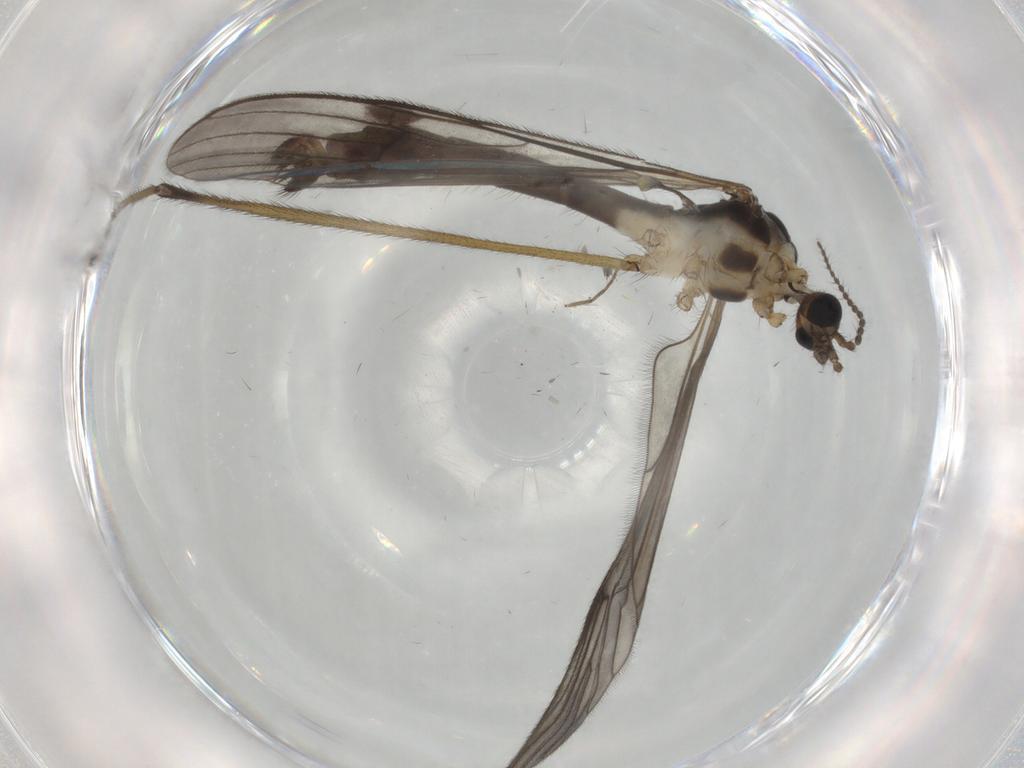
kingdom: Animalia
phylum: Arthropoda
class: Insecta
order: Diptera
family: Cecidomyiidae
